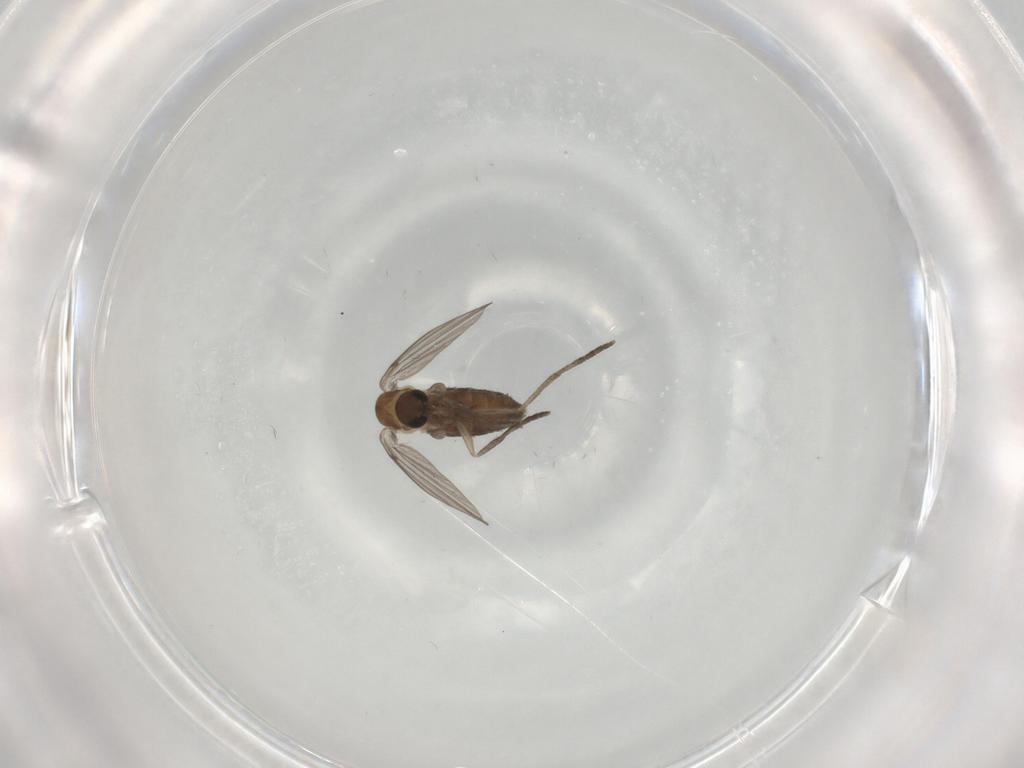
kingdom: Animalia
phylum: Arthropoda
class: Insecta
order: Diptera
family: Psychodidae
